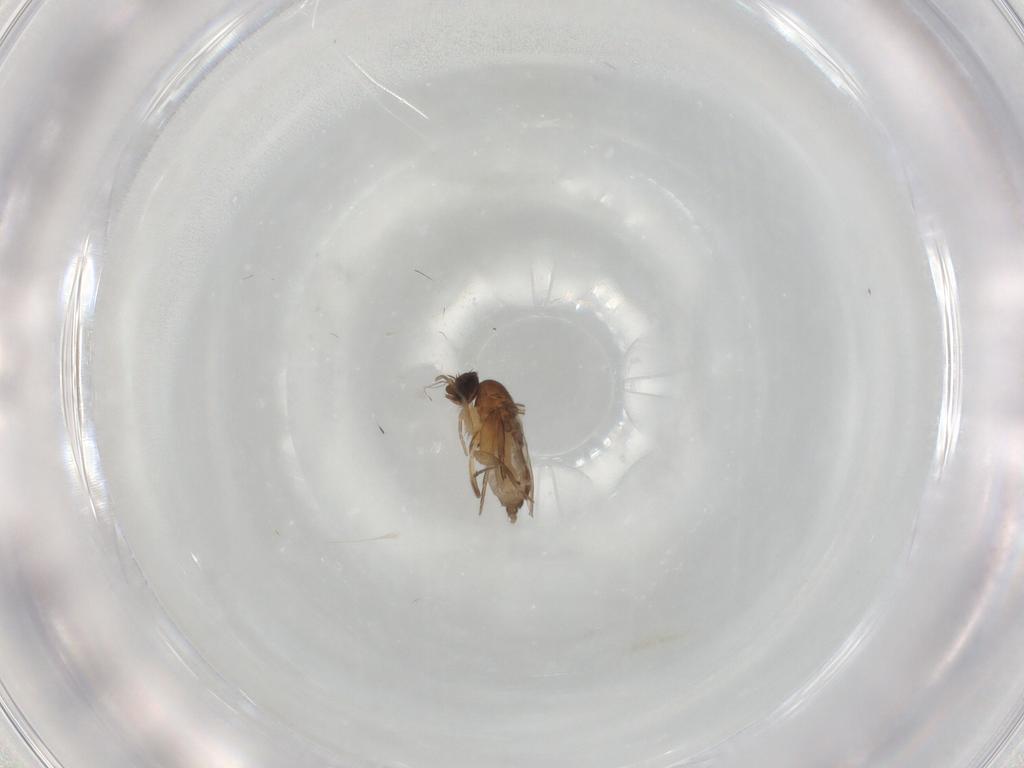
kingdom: Animalia
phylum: Arthropoda
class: Insecta
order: Diptera
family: Phoridae
